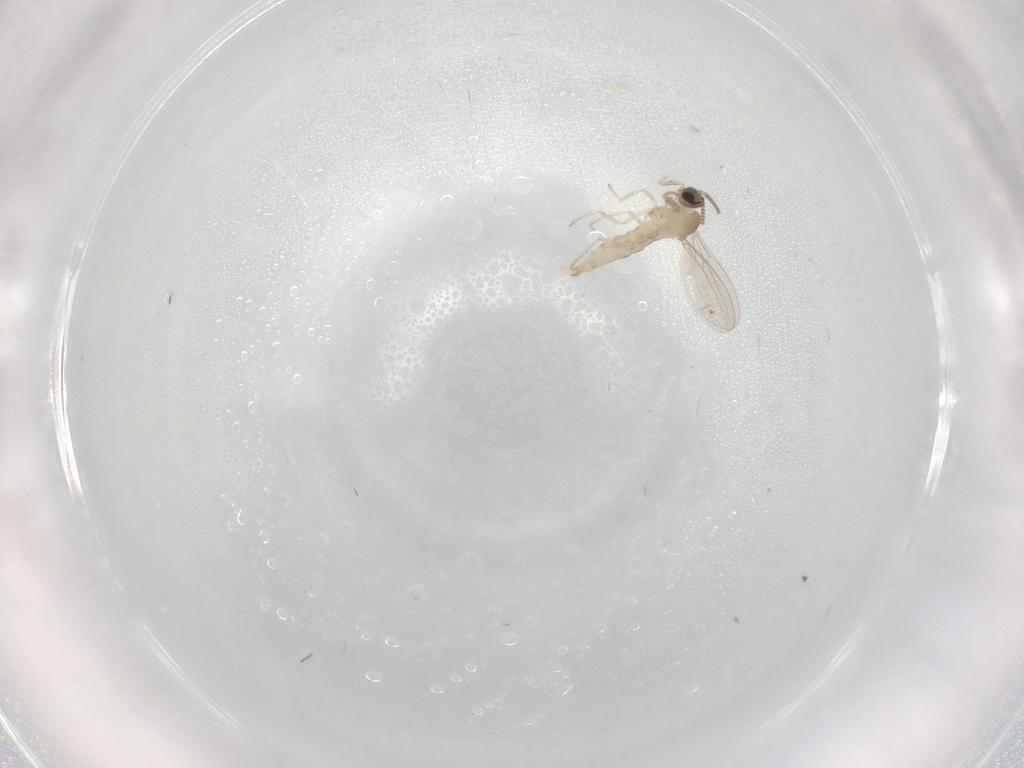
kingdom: Animalia
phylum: Arthropoda
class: Insecta
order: Diptera
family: Cecidomyiidae
